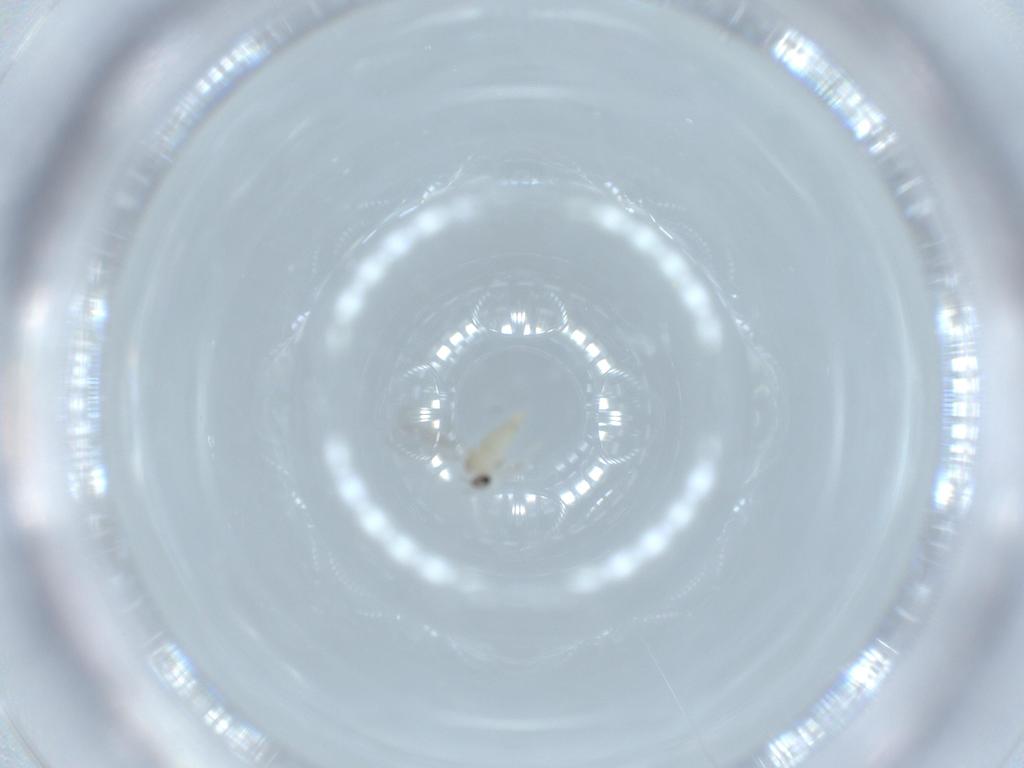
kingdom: Animalia
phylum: Arthropoda
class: Insecta
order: Diptera
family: Cecidomyiidae
